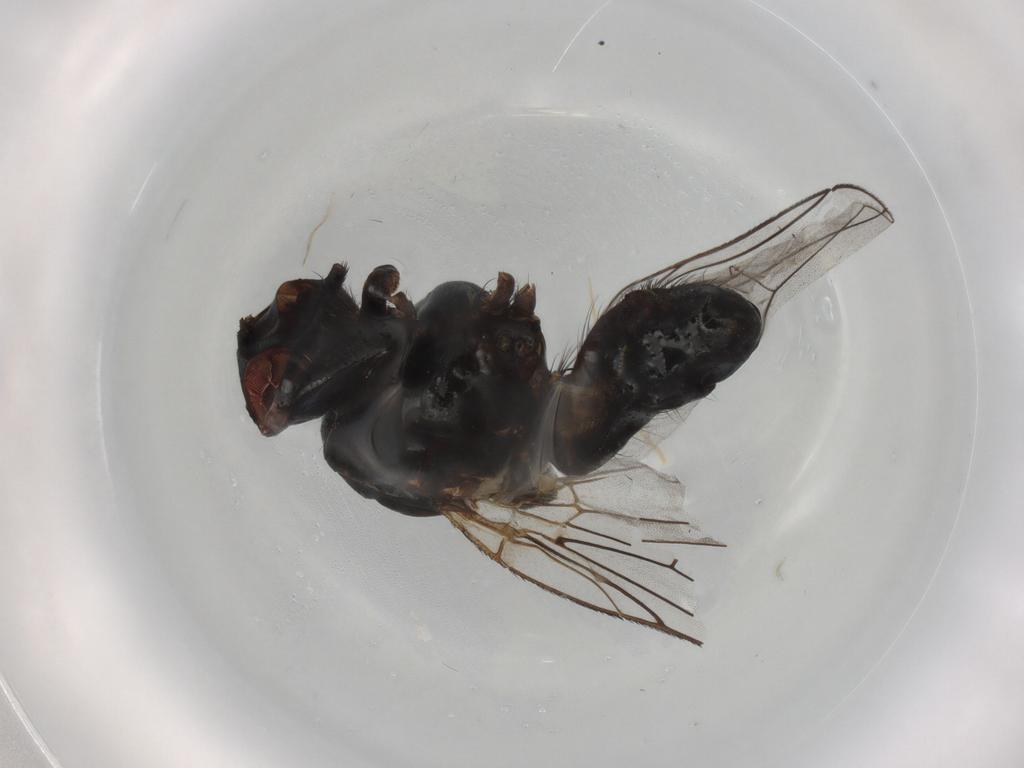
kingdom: Animalia
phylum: Arthropoda
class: Insecta
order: Diptera
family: Anthomyiidae
